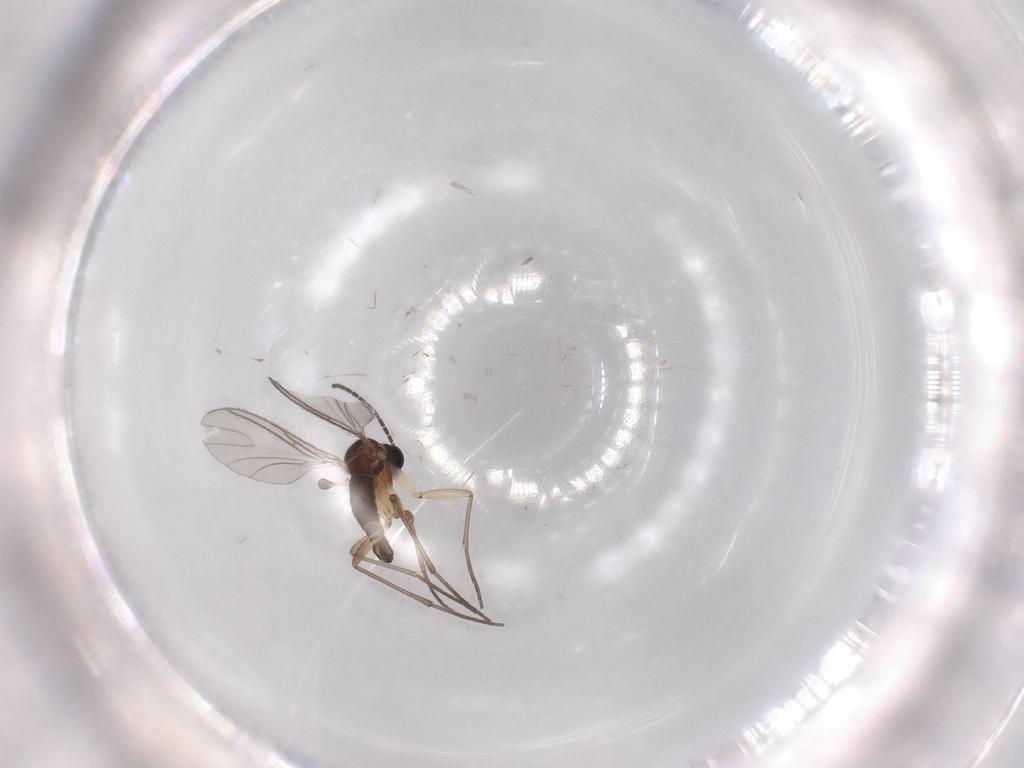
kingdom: Animalia
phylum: Arthropoda
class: Insecta
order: Diptera
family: Sciaridae
